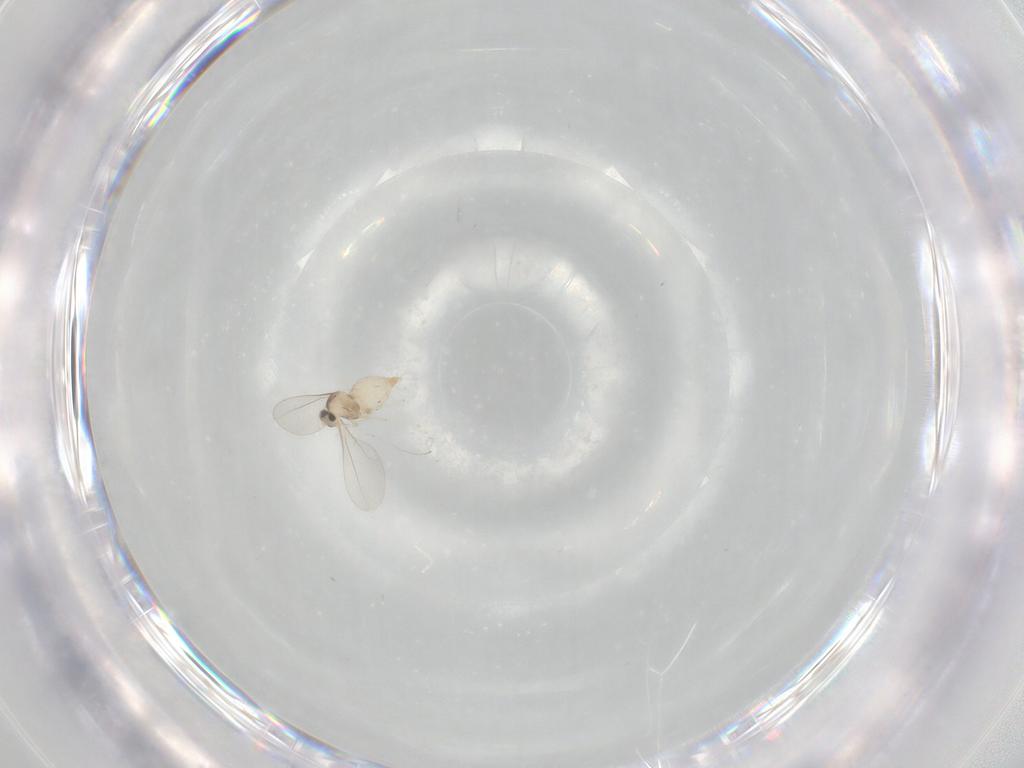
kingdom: Animalia
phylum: Arthropoda
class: Insecta
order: Diptera
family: Cecidomyiidae
